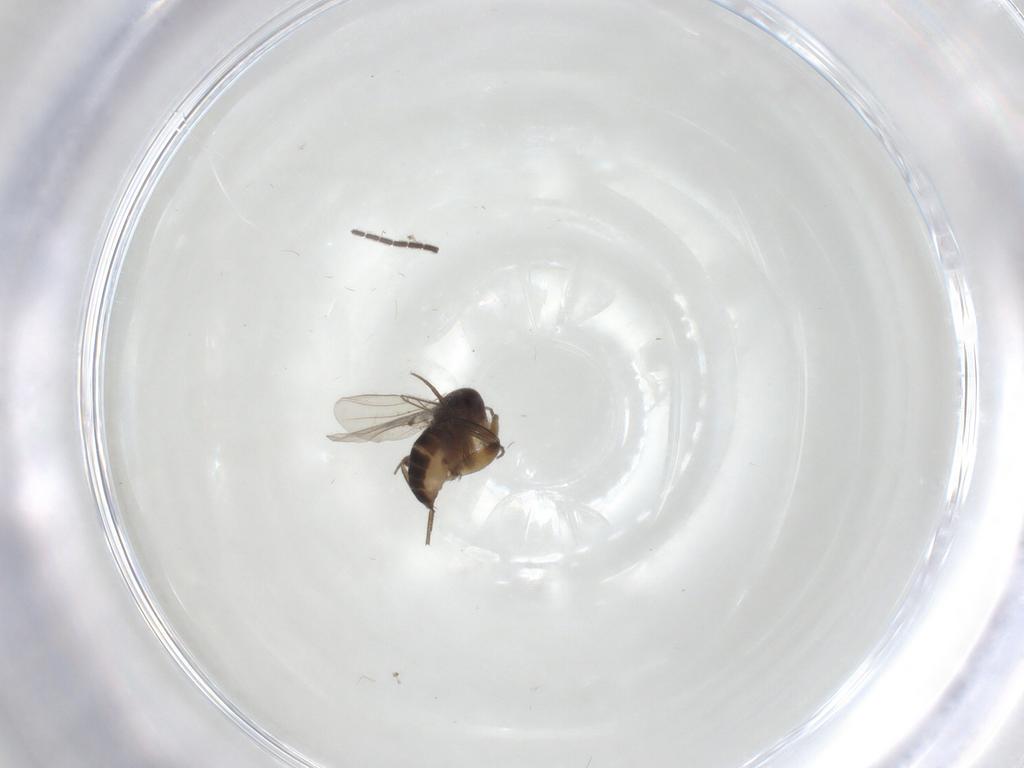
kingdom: Animalia
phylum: Arthropoda
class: Insecta
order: Diptera
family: Sciaridae
